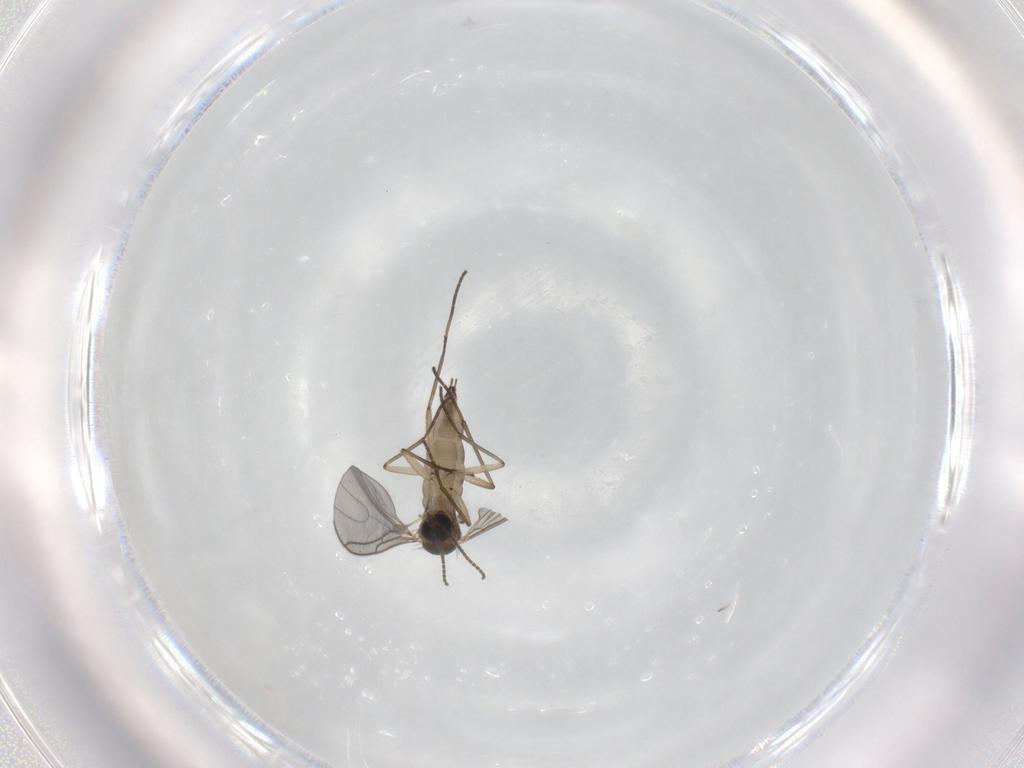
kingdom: Animalia
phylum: Arthropoda
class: Insecta
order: Diptera
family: Sciaridae
